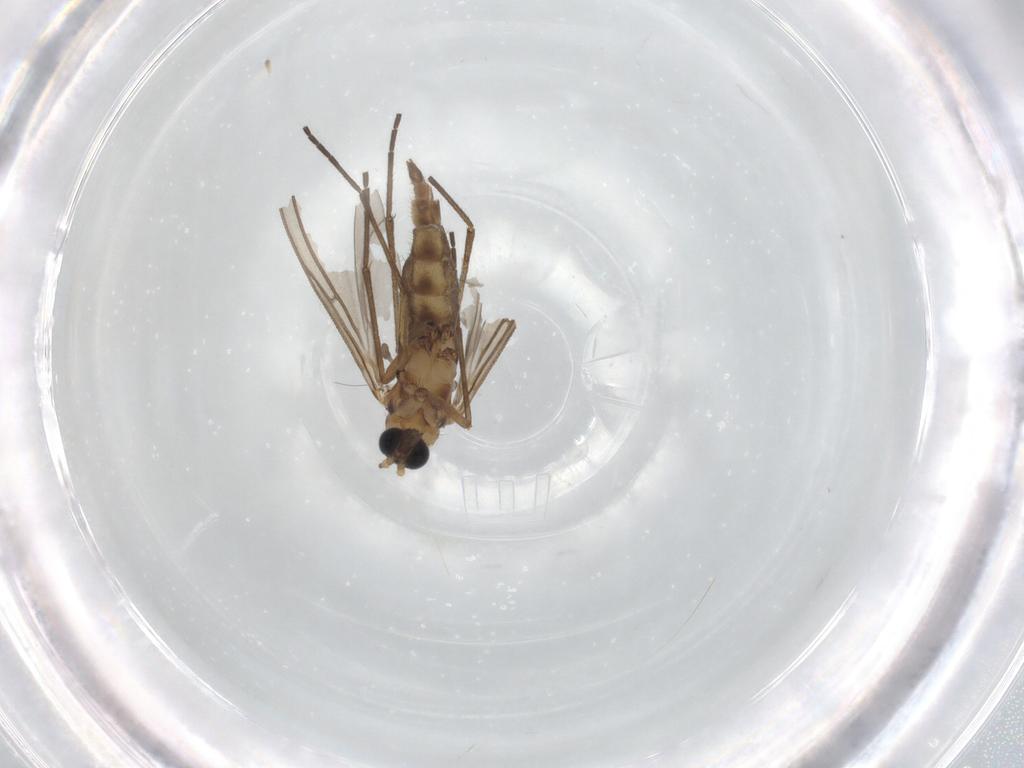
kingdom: Animalia
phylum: Arthropoda
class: Insecta
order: Diptera
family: Sciaridae
